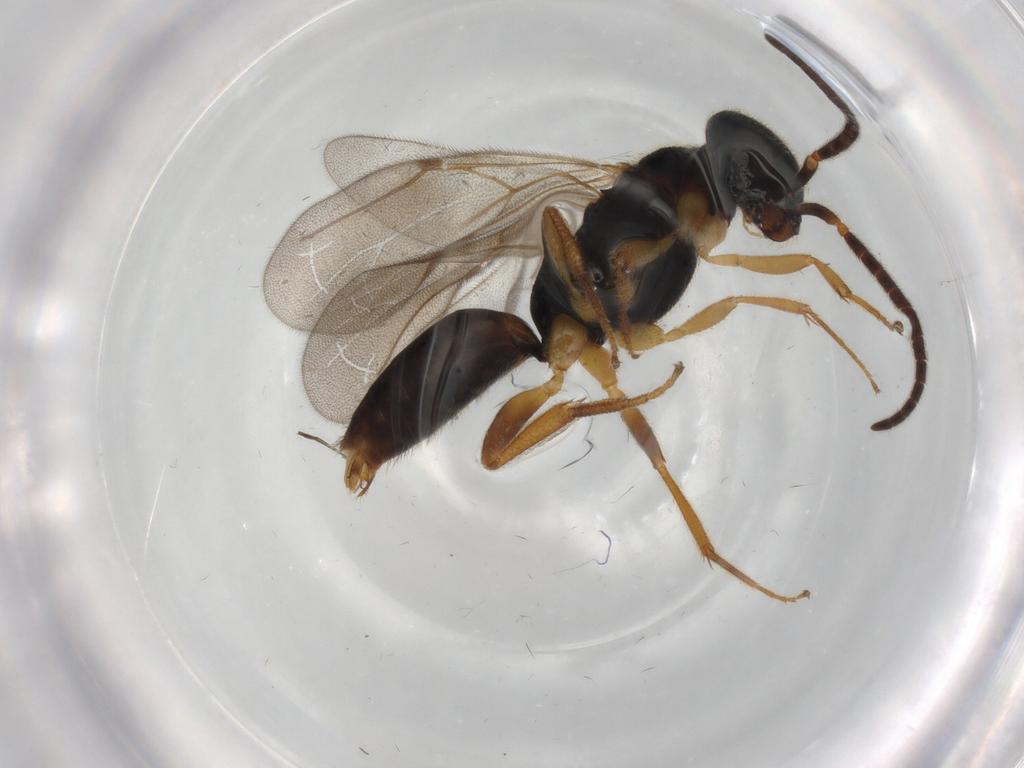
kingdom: Animalia
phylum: Arthropoda
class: Insecta
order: Hymenoptera
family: Bethylidae
